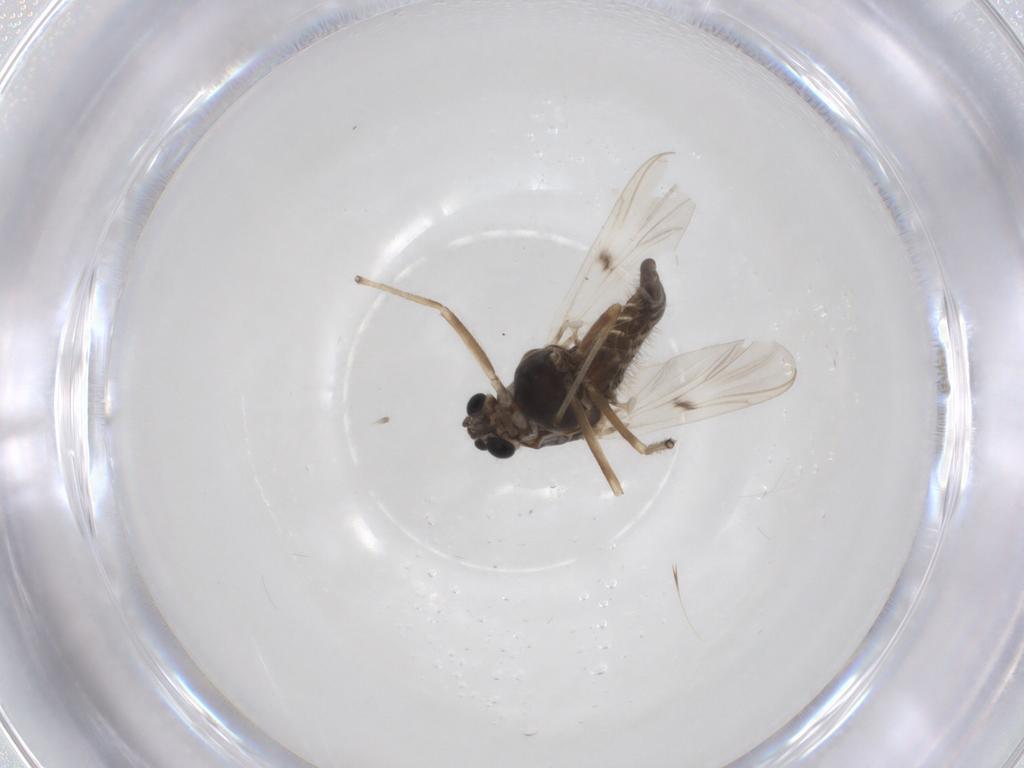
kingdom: Animalia
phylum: Arthropoda
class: Insecta
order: Diptera
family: Chironomidae
